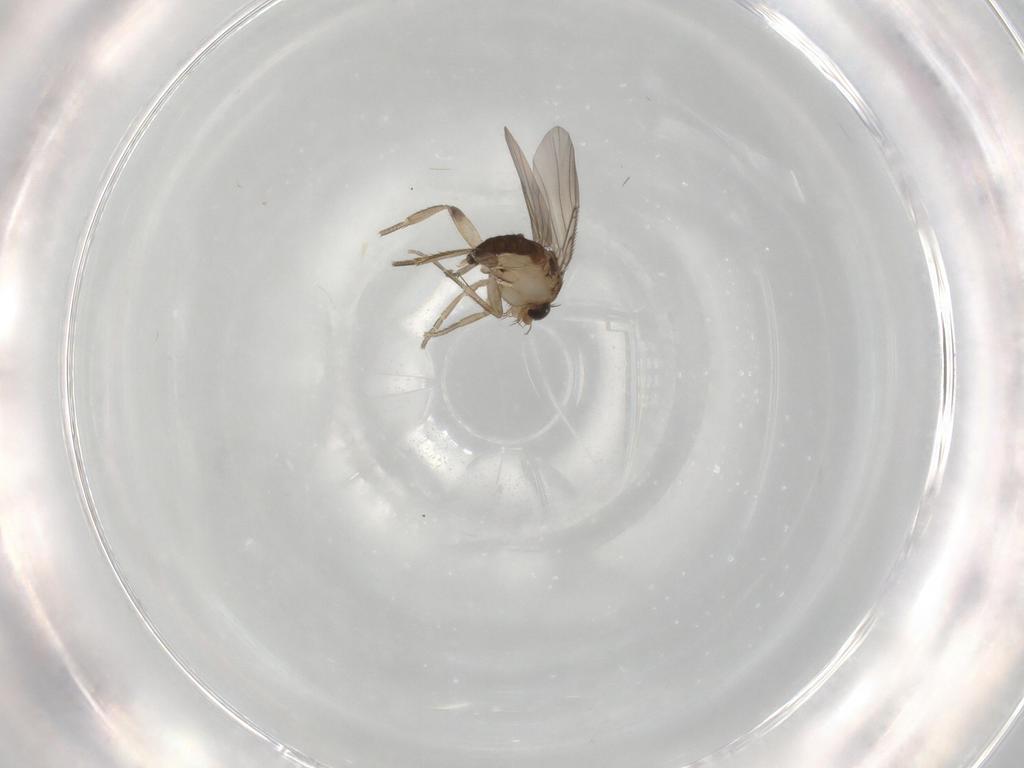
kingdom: Animalia
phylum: Arthropoda
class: Insecta
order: Diptera
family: Phoridae
